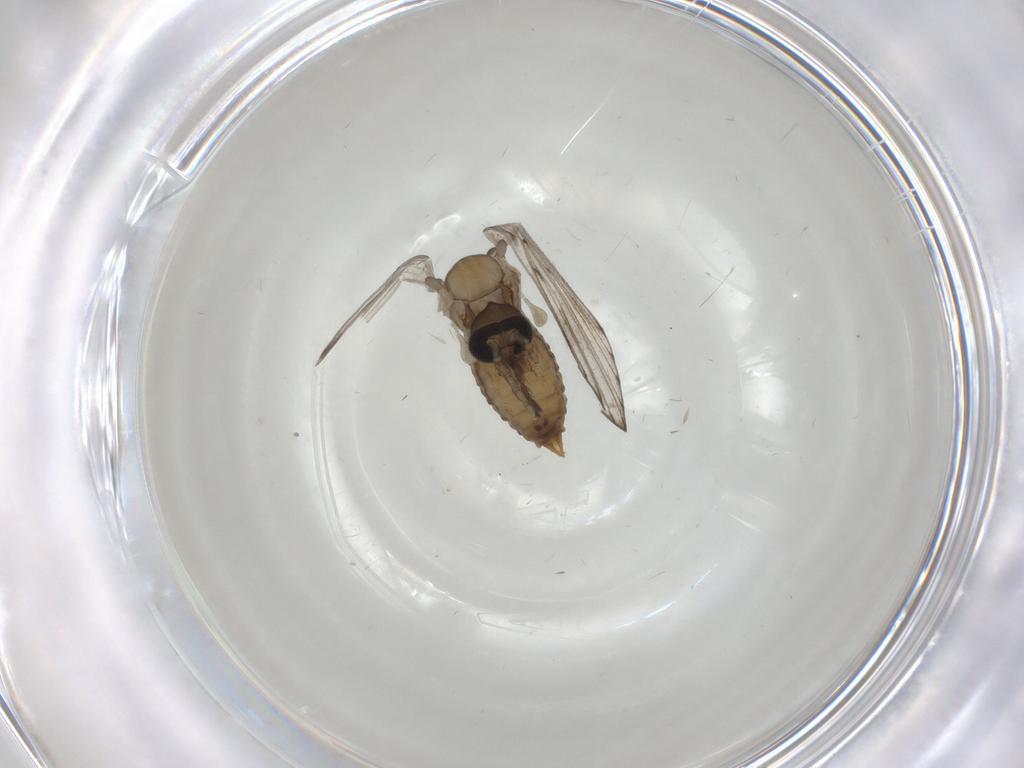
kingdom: Animalia
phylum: Arthropoda
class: Insecta
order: Diptera
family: Cecidomyiidae
